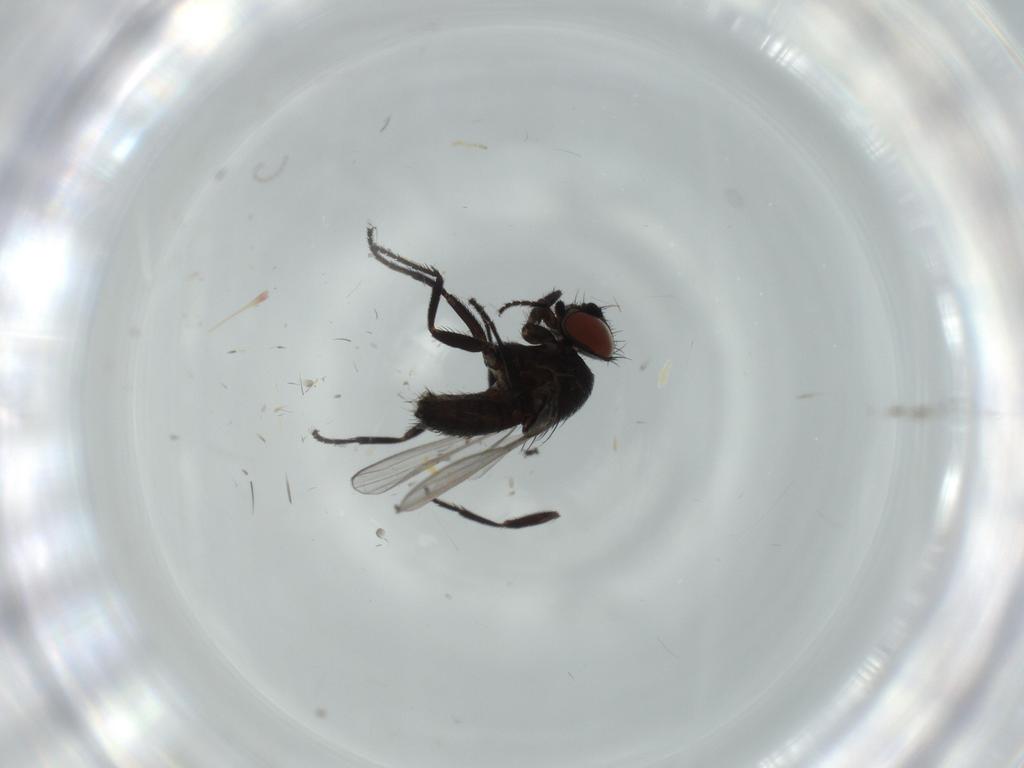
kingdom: Animalia
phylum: Arthropoda
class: Insecta
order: Diptera
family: Milichiidae
